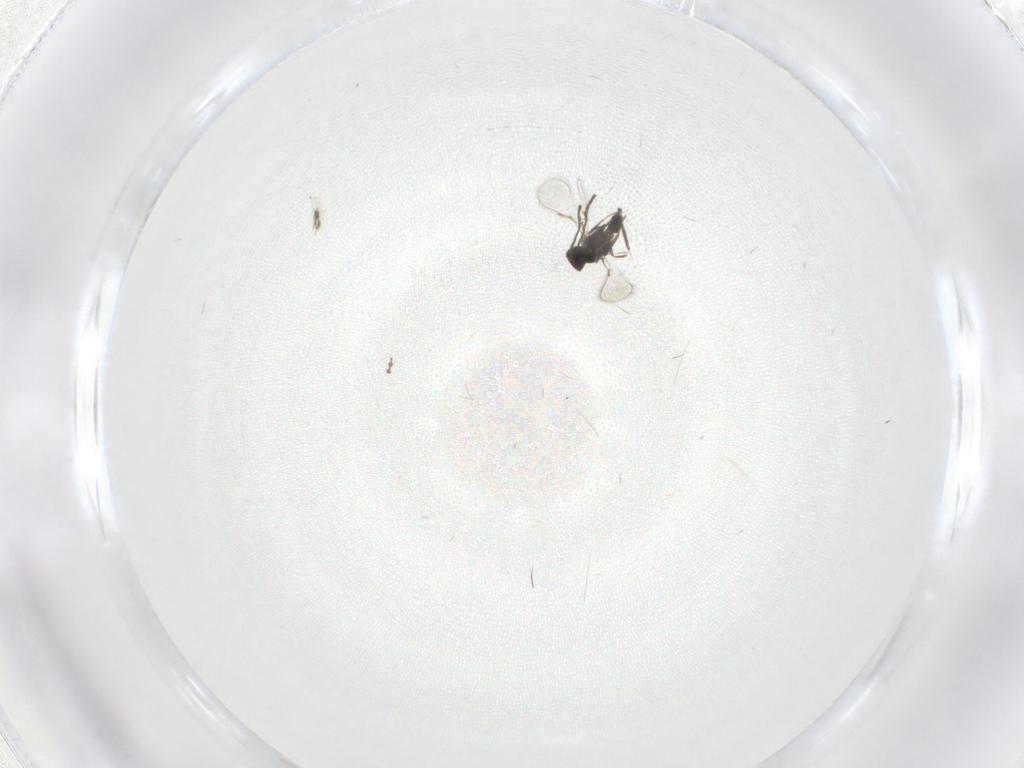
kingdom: Animalia
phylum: Arthropoda
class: Insecta
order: Diptera
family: Cecidomyiidae
